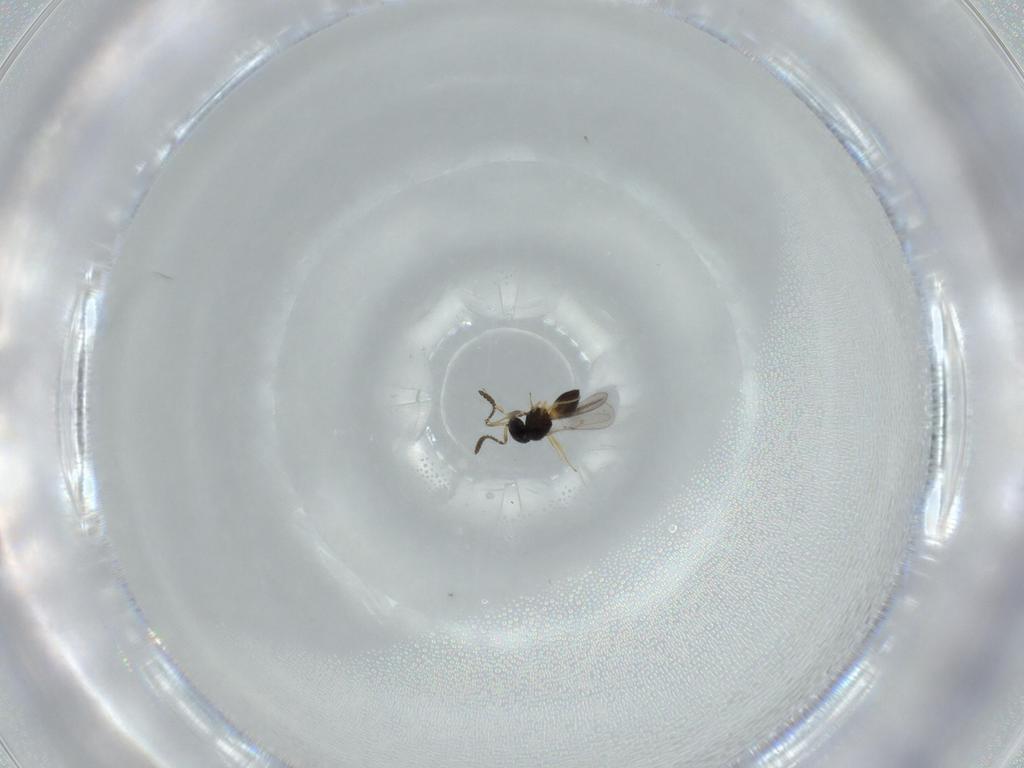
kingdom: Animalia
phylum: Arthropoda
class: Insecta
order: Hymenoptera
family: Scelionidae
